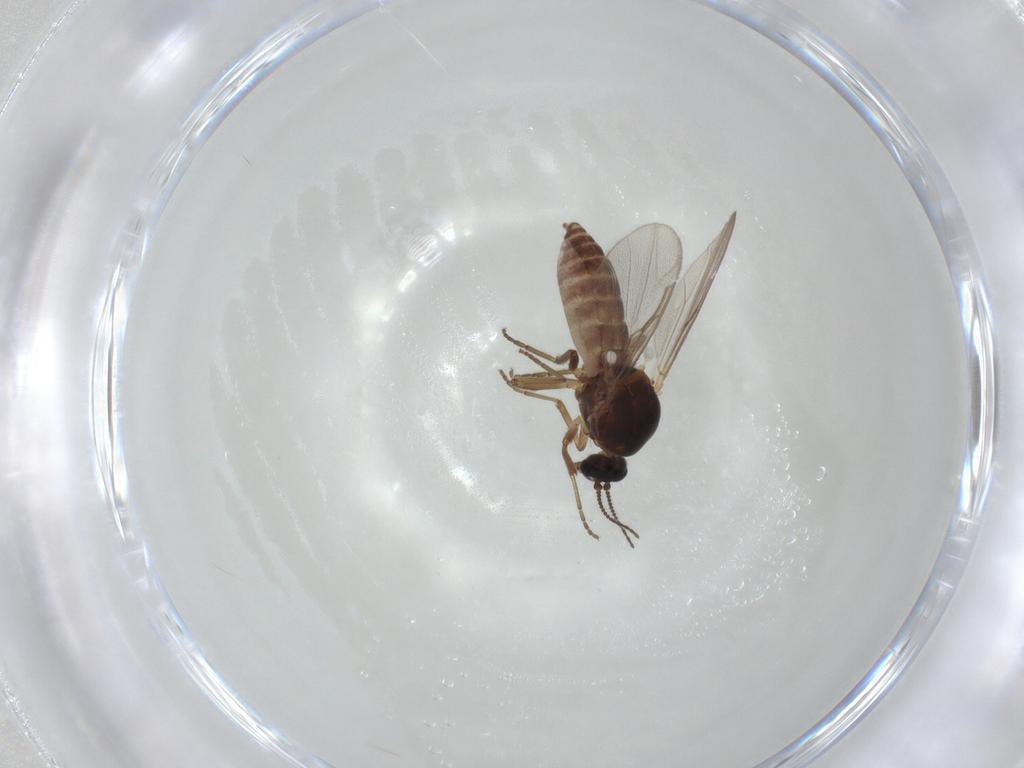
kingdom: Animalia
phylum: Arthropoda
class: Insecta
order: Diptera
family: Ceratopogonidae
